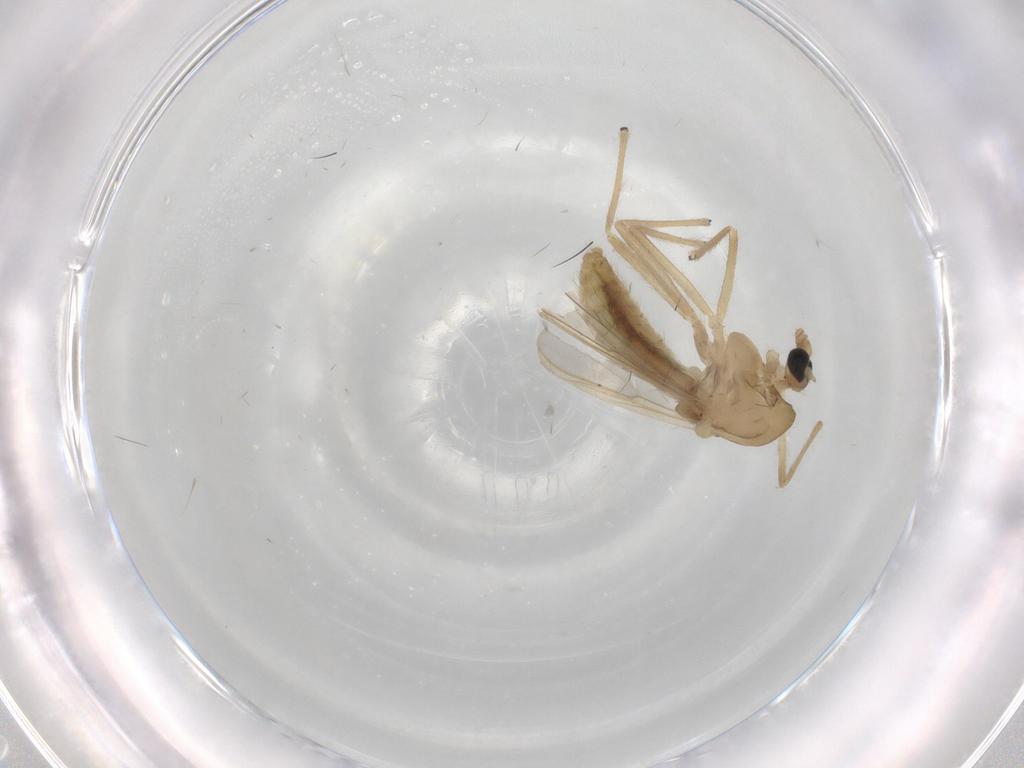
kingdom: Animalia
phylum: Arthropoda
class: Insecta
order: Diptera
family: Chironomidae
